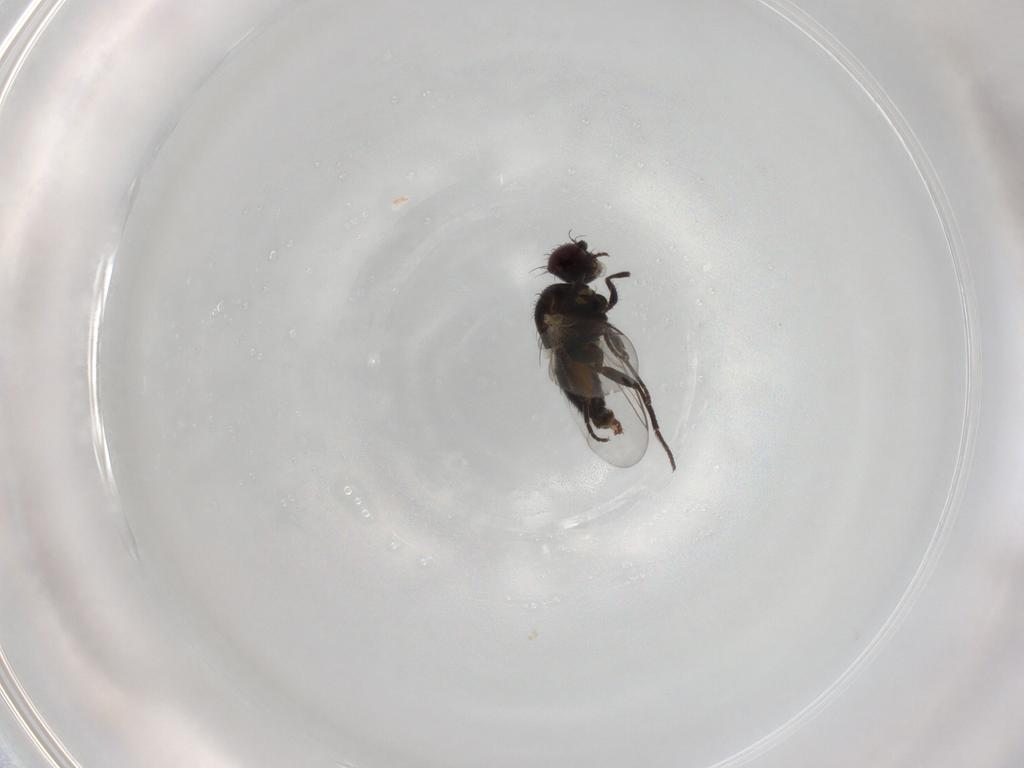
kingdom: Animalia
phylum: Arthropoda
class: Insecta
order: Diptera
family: Agromyzidae
